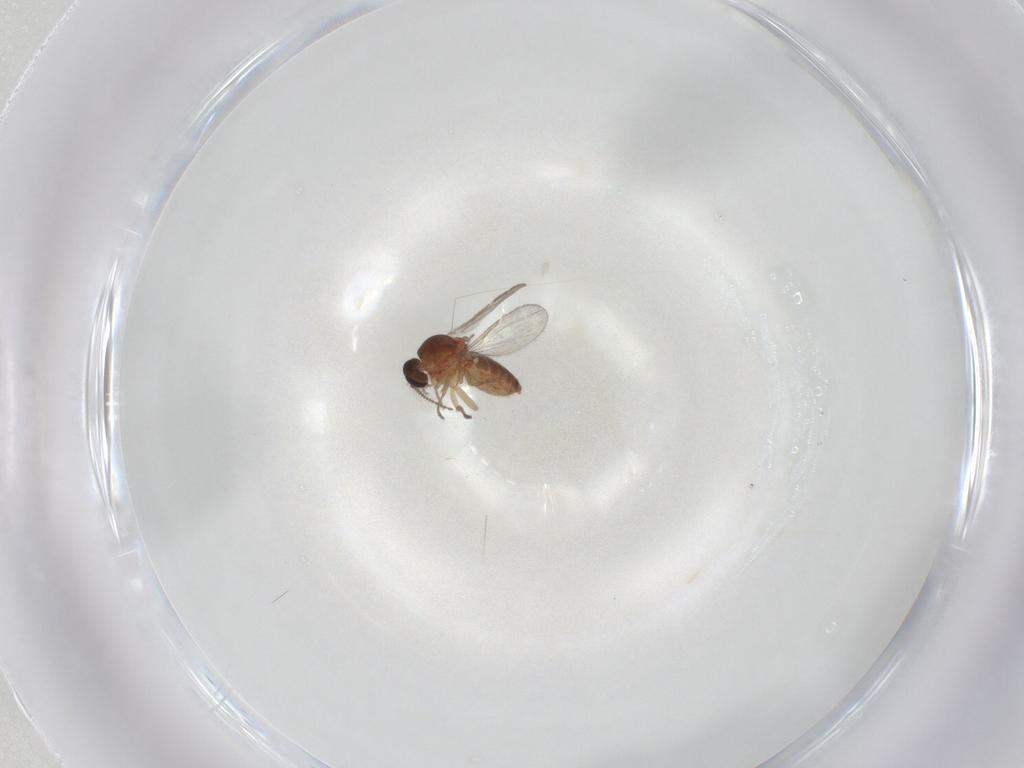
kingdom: Animalia
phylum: Arthropoda
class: Insecta
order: Diptera
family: Ceratopogonidae
